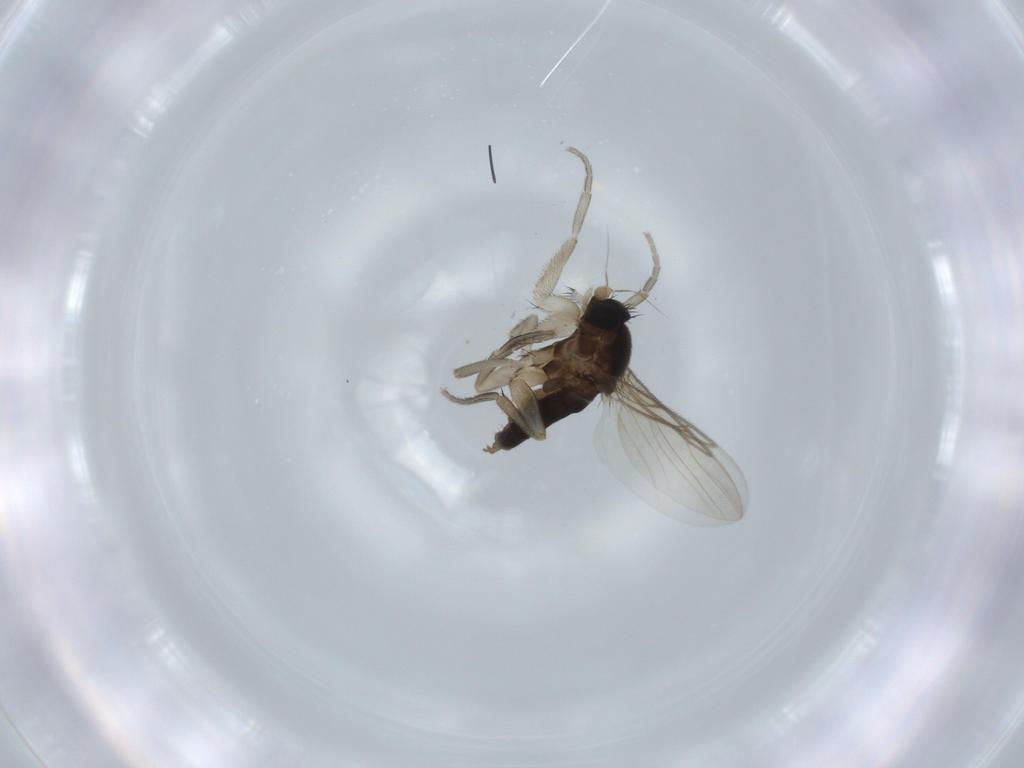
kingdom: Animalia
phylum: Arthropoda
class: Insecta
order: Diptera
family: Phoridae
